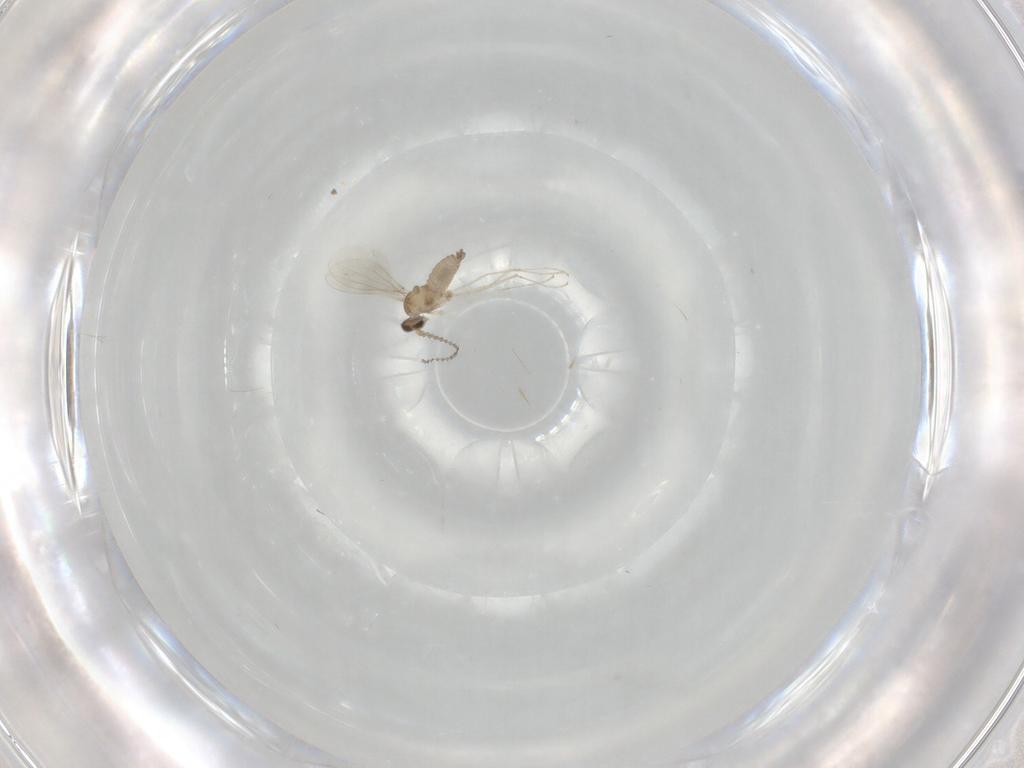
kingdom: Animalia
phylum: Arthropoda
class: Insecta
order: Diptera
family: Cecidomyiidae
